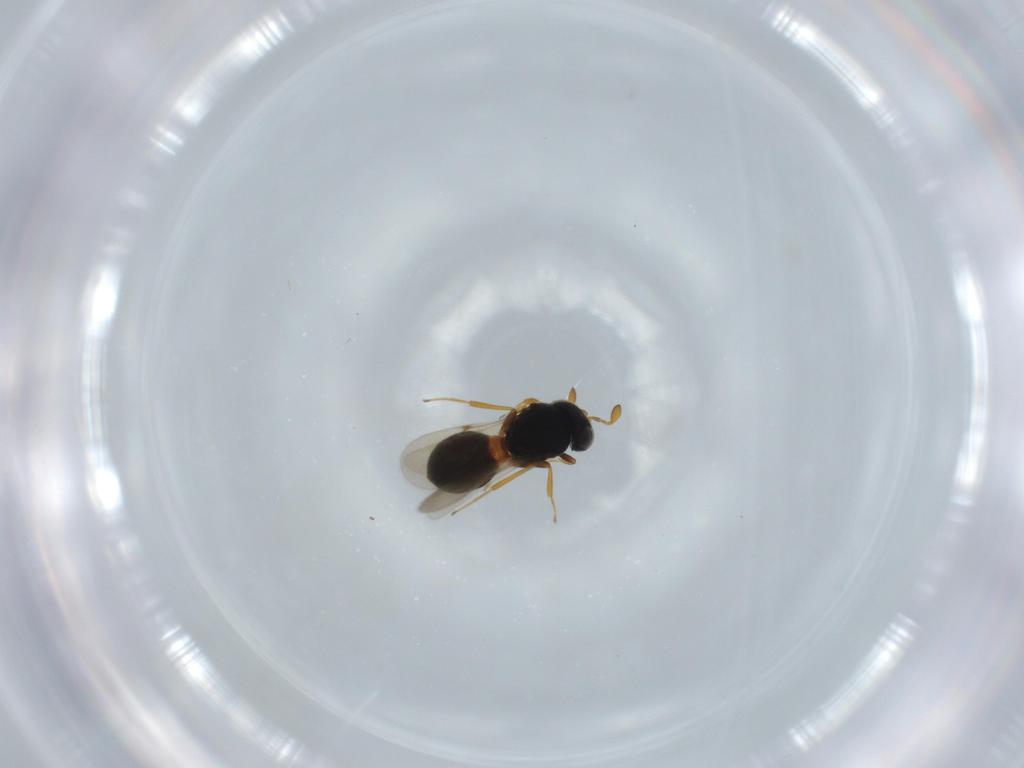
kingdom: Animalia
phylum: Arthropoda
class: Insecta
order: Hymenoptera
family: Scelionidae
